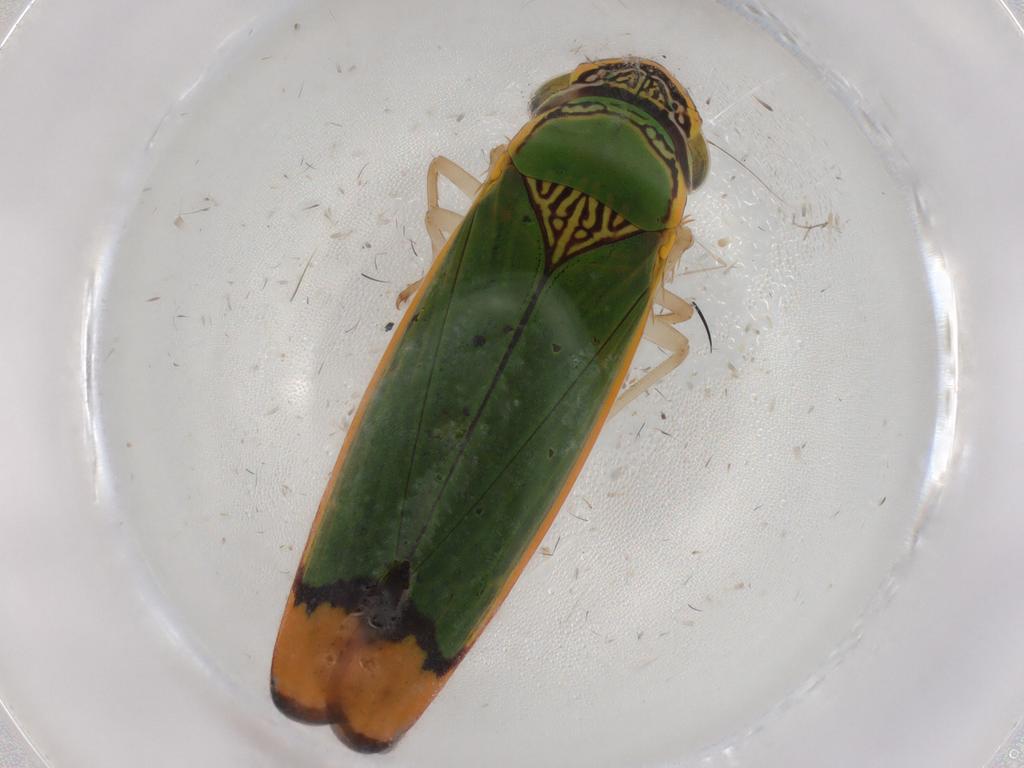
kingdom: Animalia
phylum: Arthropoda
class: Insecta
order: Hemiptera
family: Cicadellidae
